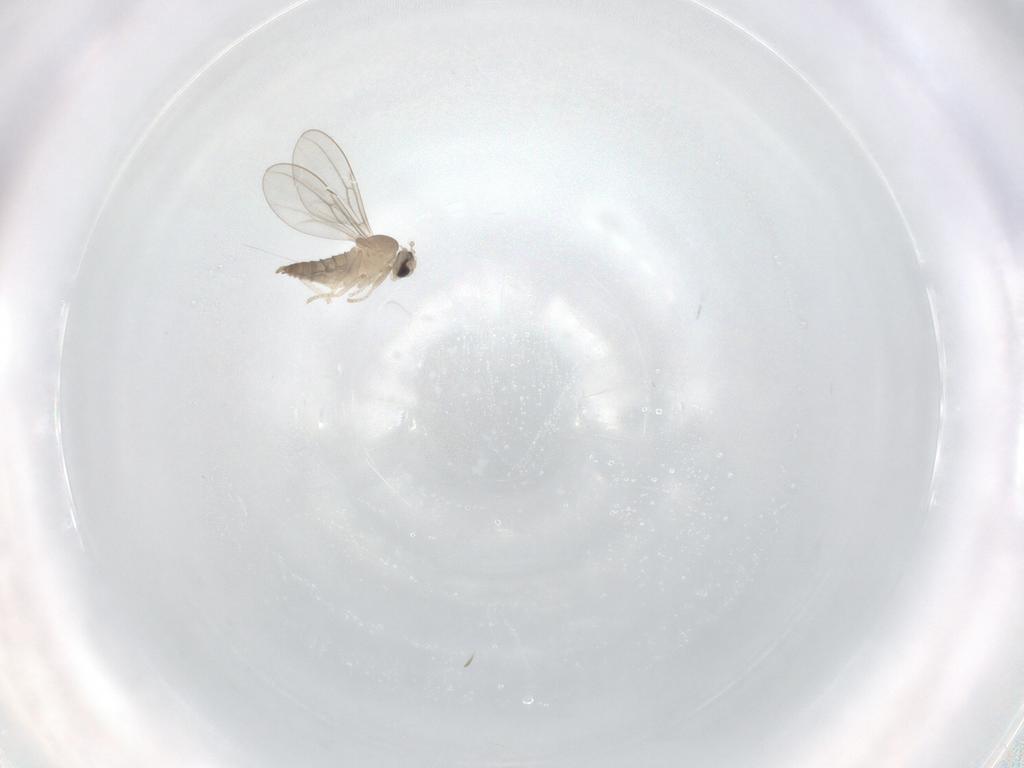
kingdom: Animalia
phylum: Arthropoda
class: Insecta
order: Diptera
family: Cecidomyiidae
